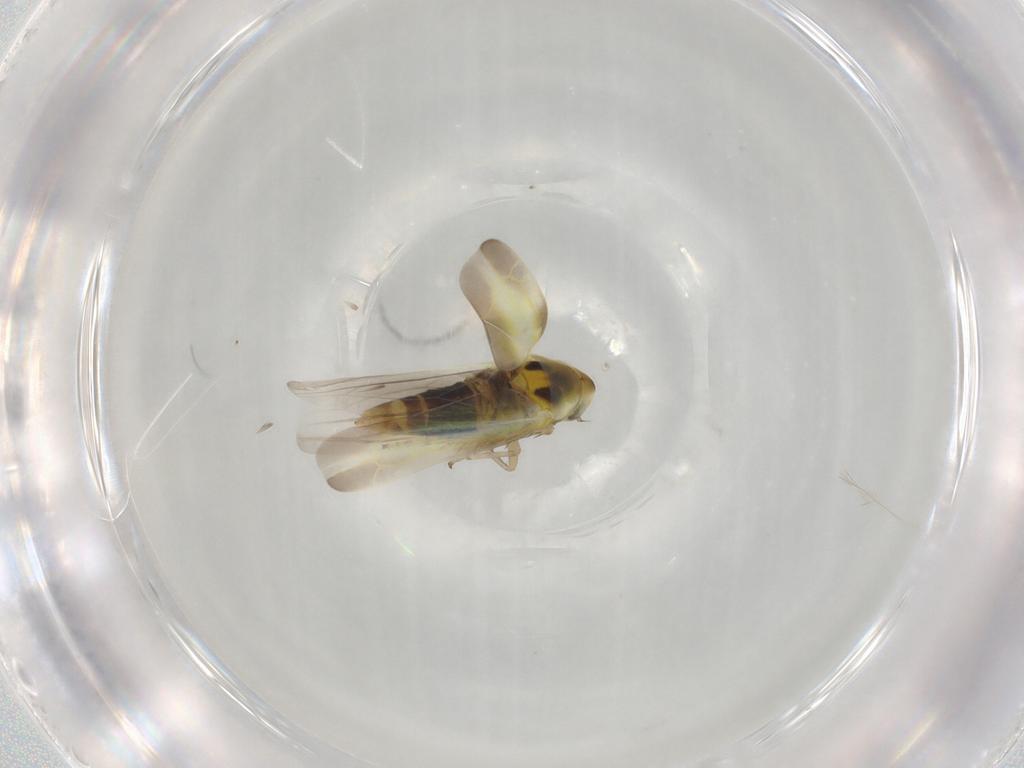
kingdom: Animalia
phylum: Arthropoda
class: Insecta
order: Hemiptera
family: Cicadellidae
